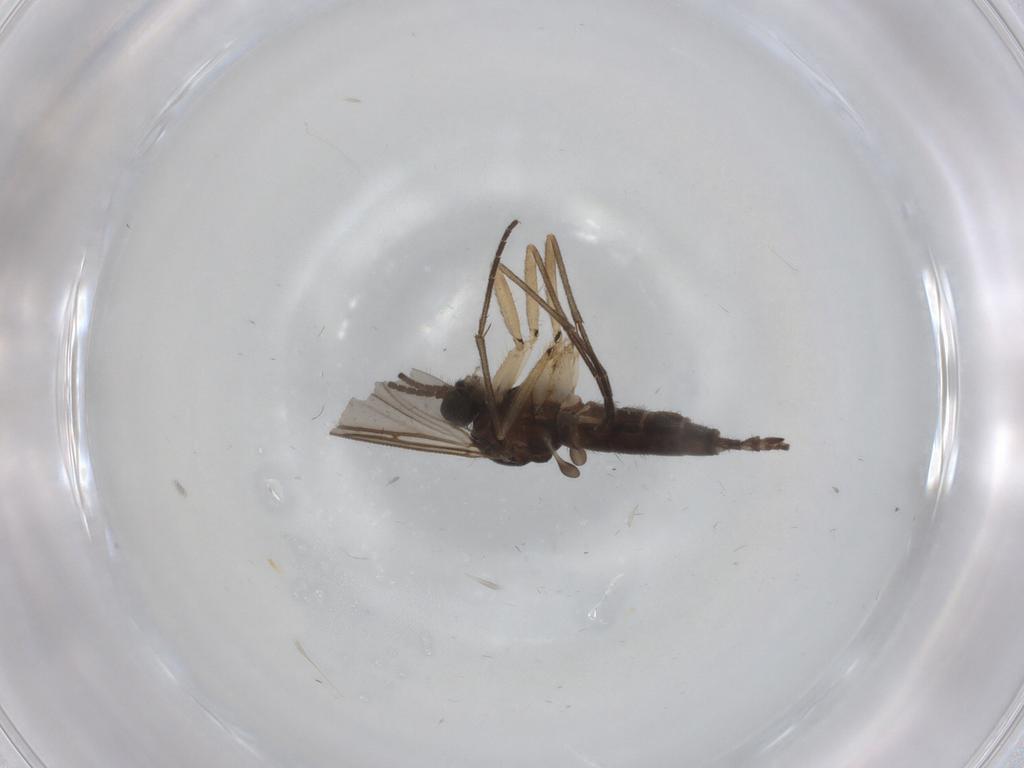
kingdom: Animalia
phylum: Arthropoda
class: Insecta
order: Diptera
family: Sciaridae
